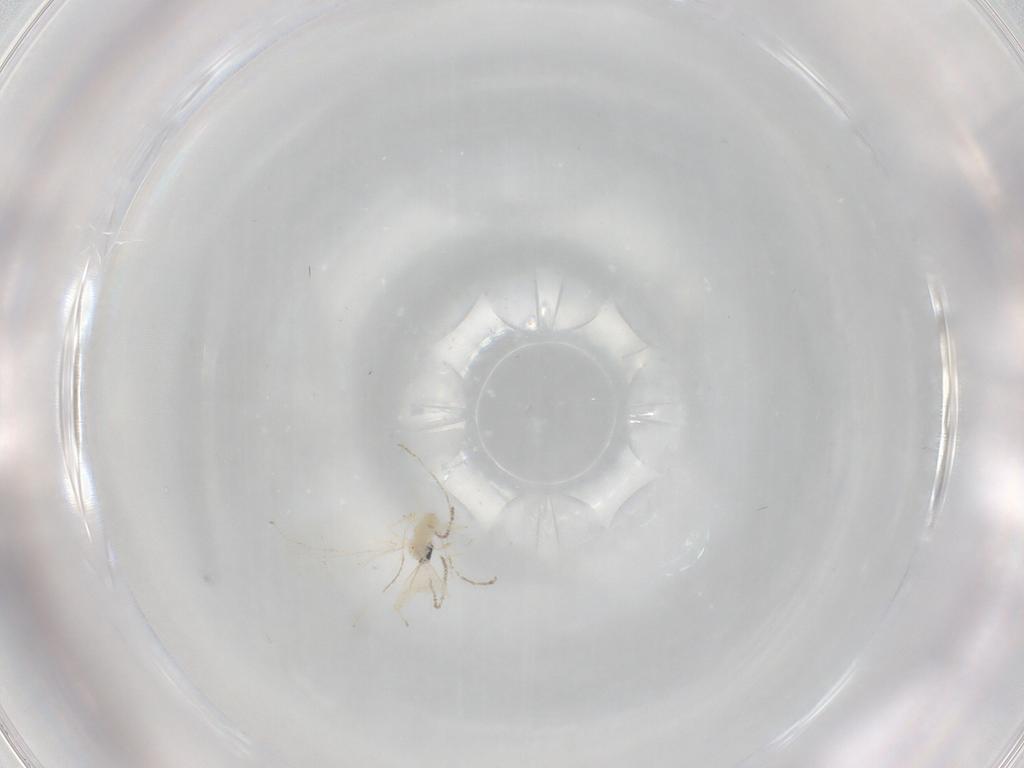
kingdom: Animalia
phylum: Arthropoda
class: Insecta
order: Diptera
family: Cecidomyiidae
